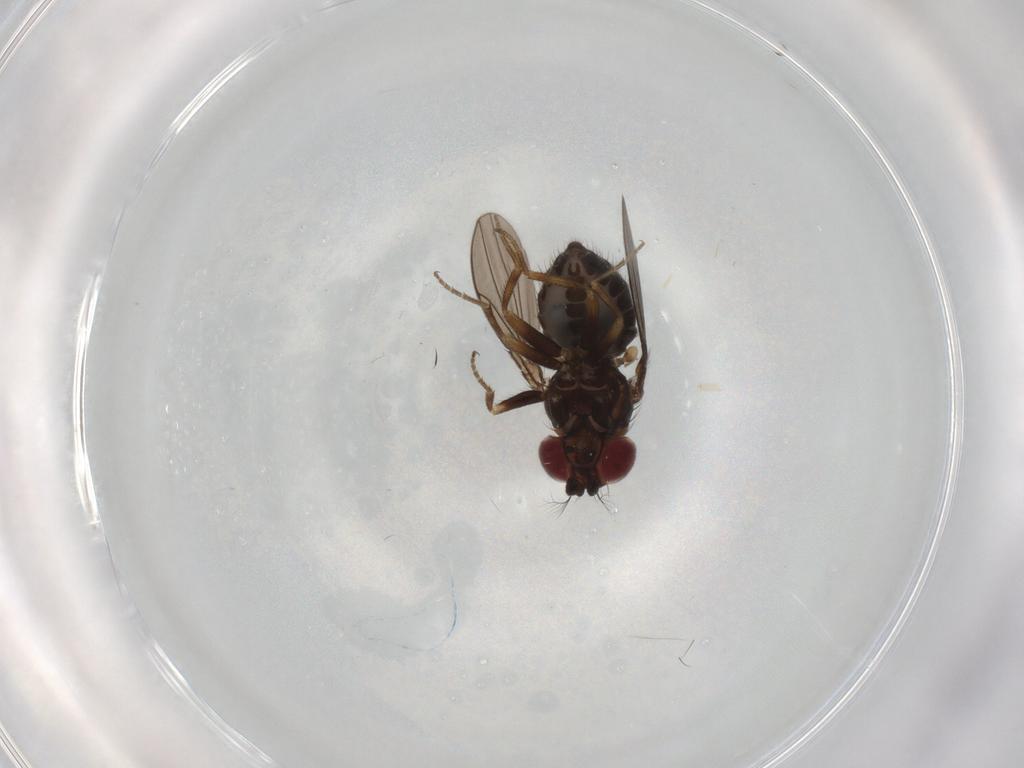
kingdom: Animalia
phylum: Arthropoda
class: Insecta
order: Diptera
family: Drosophilidae
